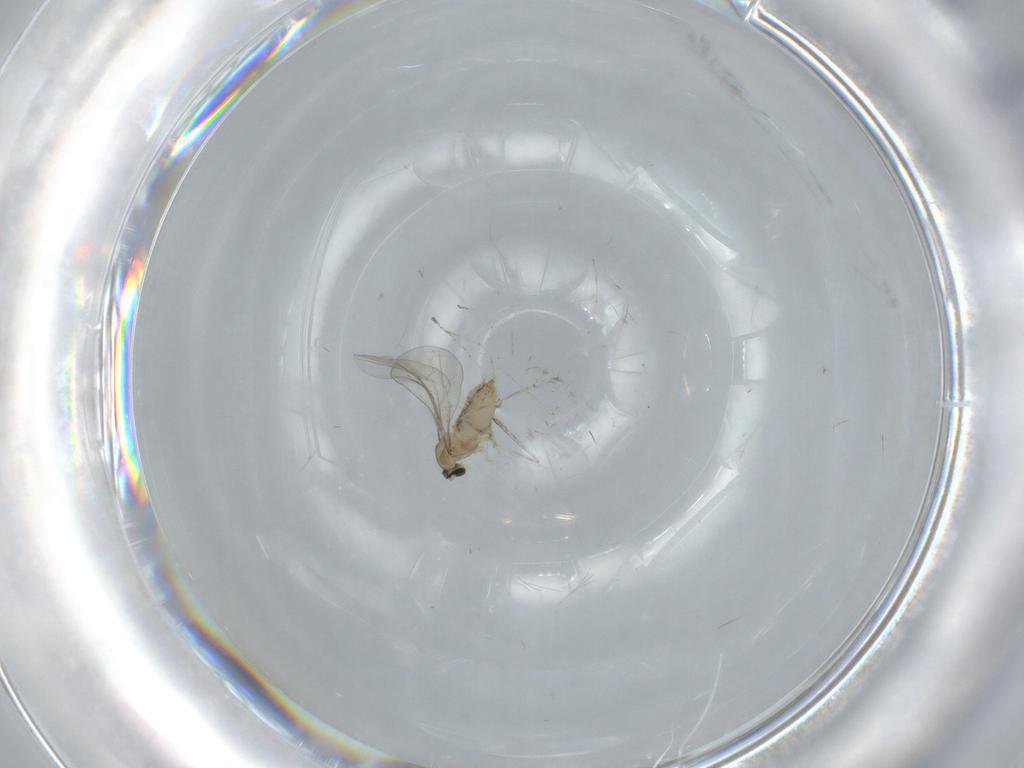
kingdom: Animalia
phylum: Arthropoda
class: Insecta
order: Diptera
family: Milichiidae
